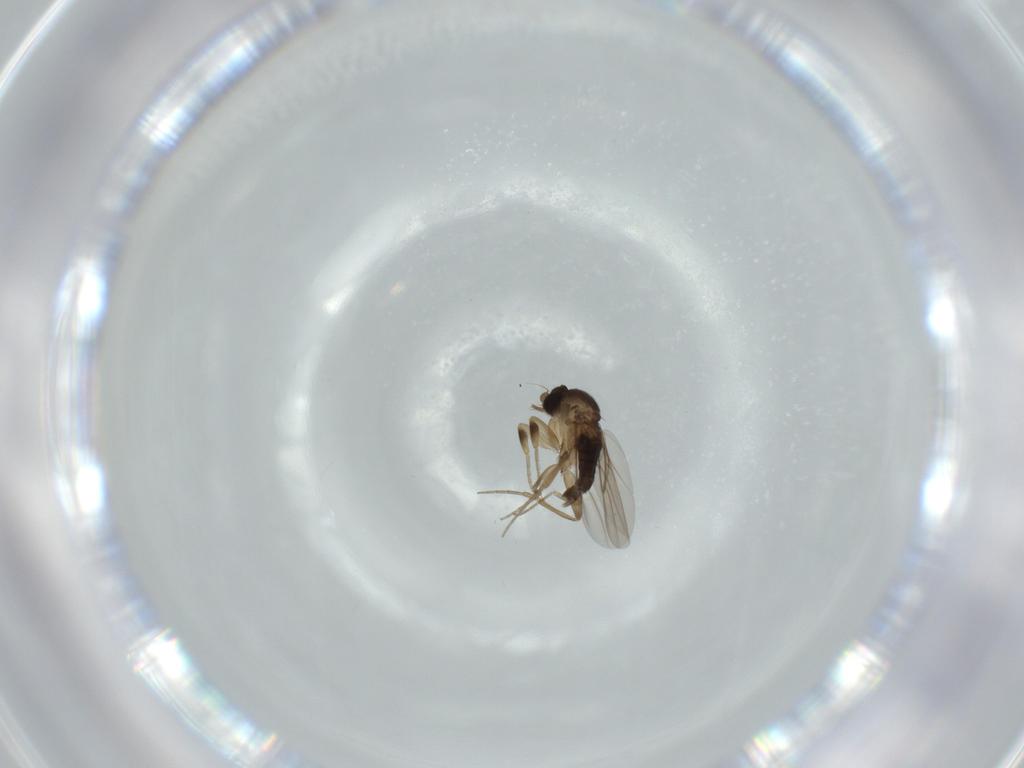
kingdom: Animalia
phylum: Arthropoda
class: Insecta
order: Diptera
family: Phoridae
